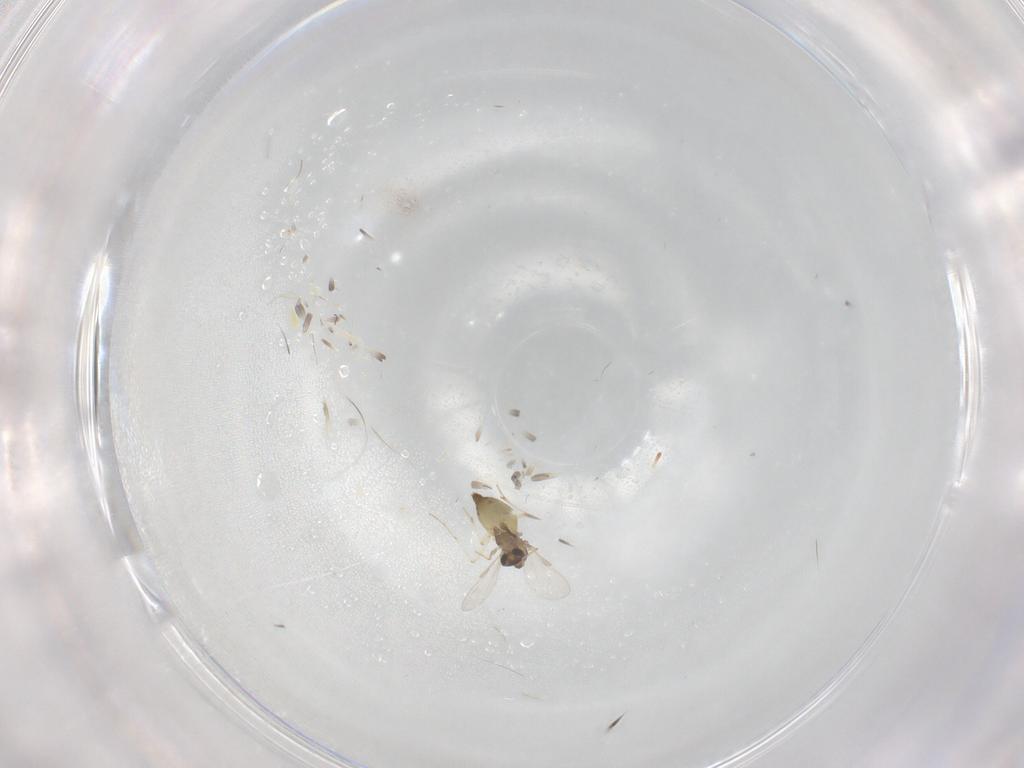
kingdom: Animalia
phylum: Arthropoda
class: Insecta
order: Diptera
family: Chironomidae
